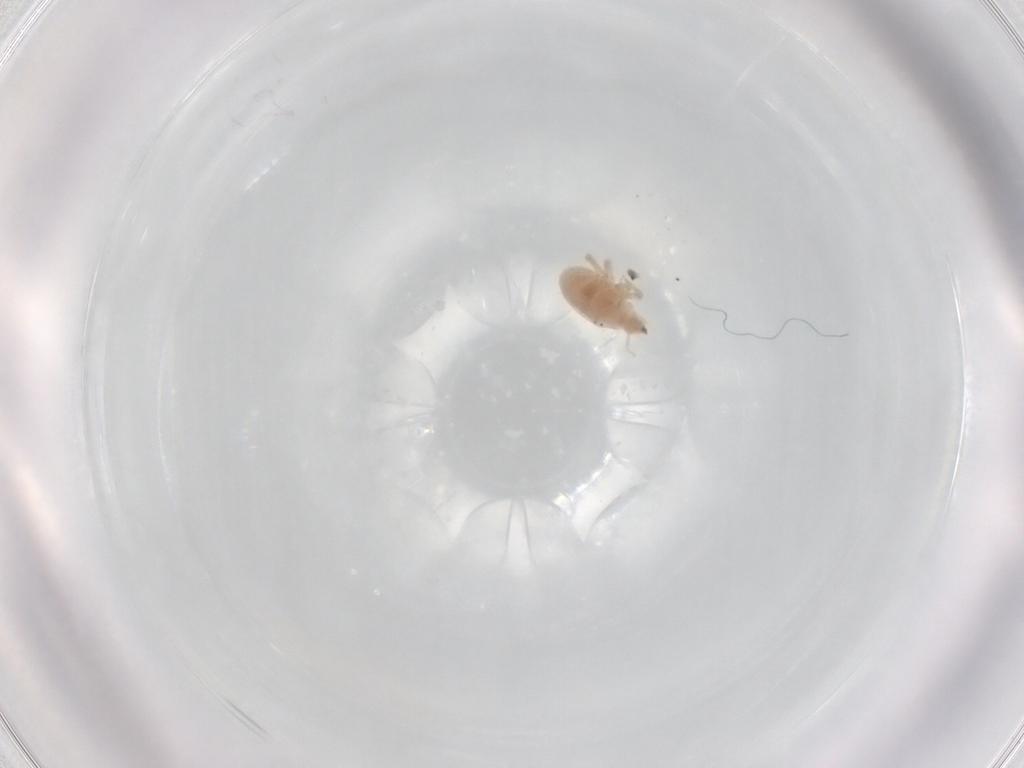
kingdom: Animalia
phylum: Arthropoda
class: Arachnida
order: Trombidiformes
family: Bdellidae
